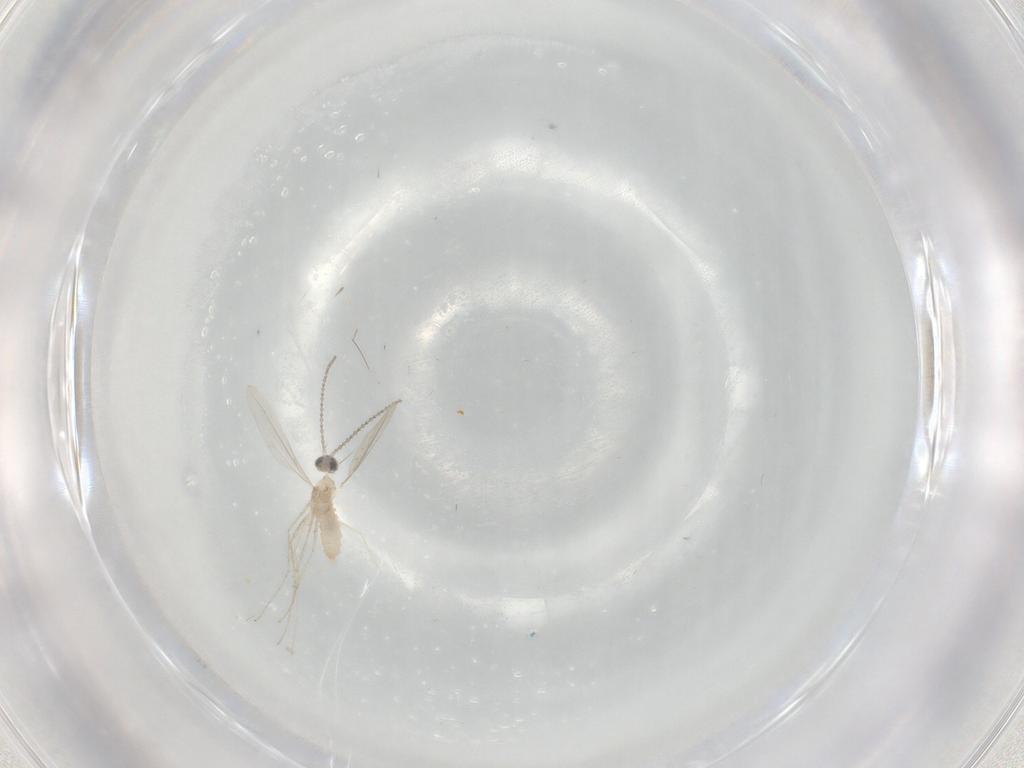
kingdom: Animalia
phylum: Arthropoda
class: Insecta
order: Diptera
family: Cecidomyiidae
